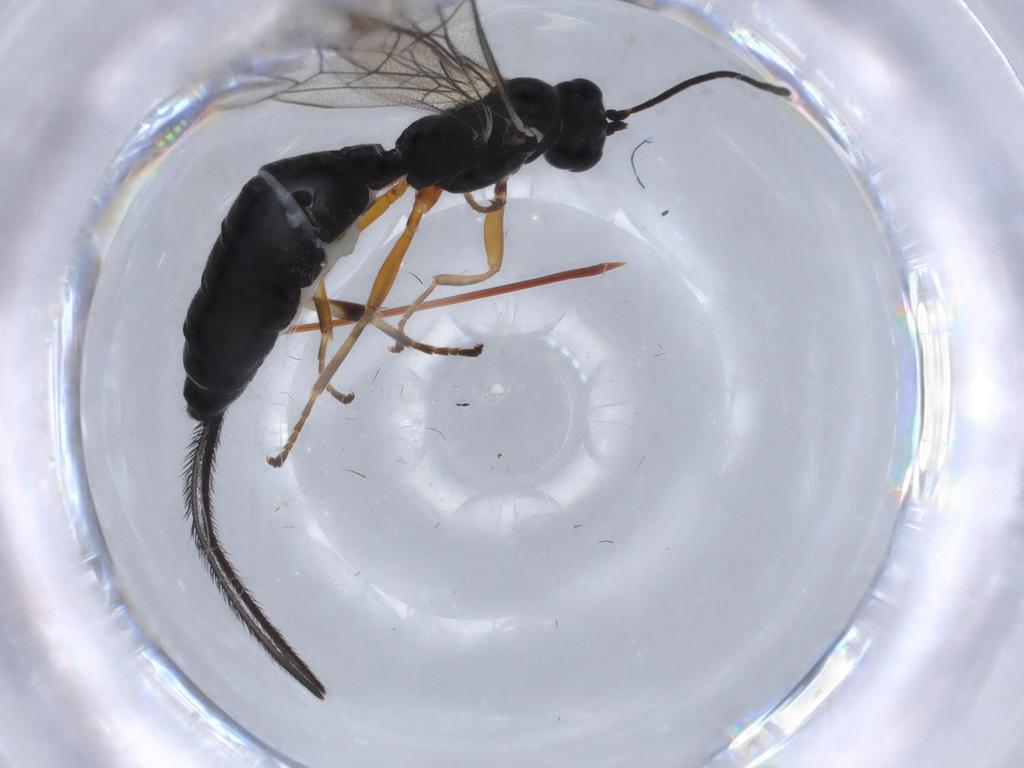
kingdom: Animalia
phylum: Arthropoda
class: Insecta
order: Hymenoptera
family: Ichneumonidae
